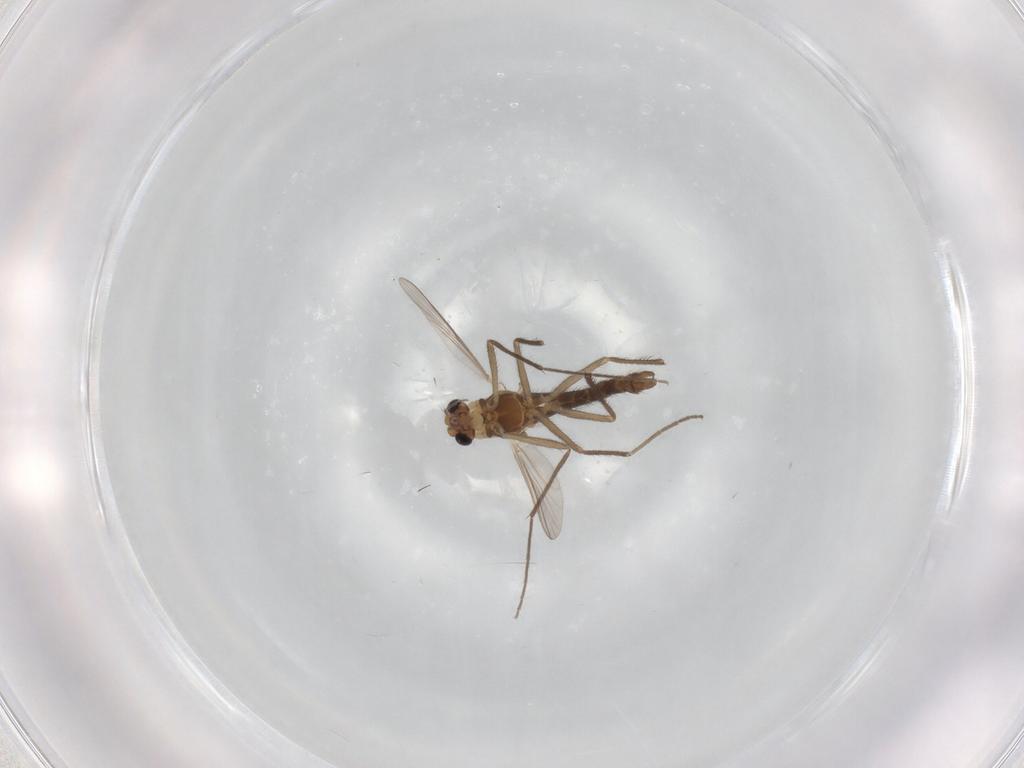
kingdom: Animalia
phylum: Arthropoda
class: Insecta
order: Diptera
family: Chironomidae
